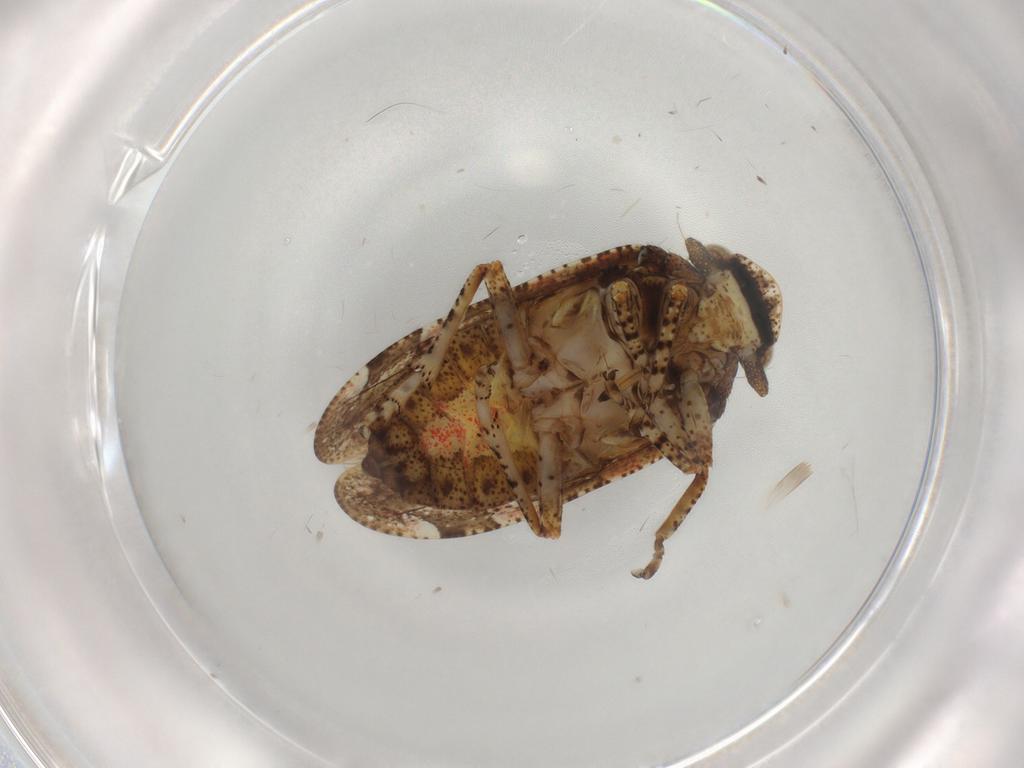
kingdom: Animalia
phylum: Arthropoda
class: Insecta
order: Hemiptera
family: Tettigometridae
